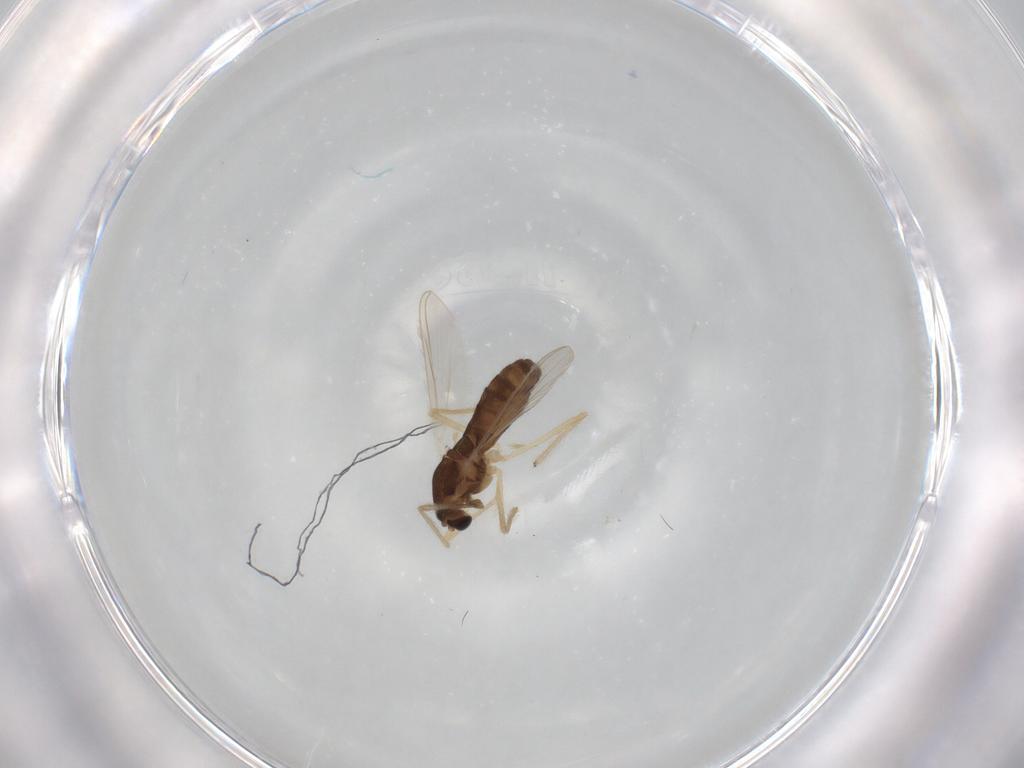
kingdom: Animalia
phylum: Arthropoda
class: Insecta
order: Diptera
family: Chironomidae
